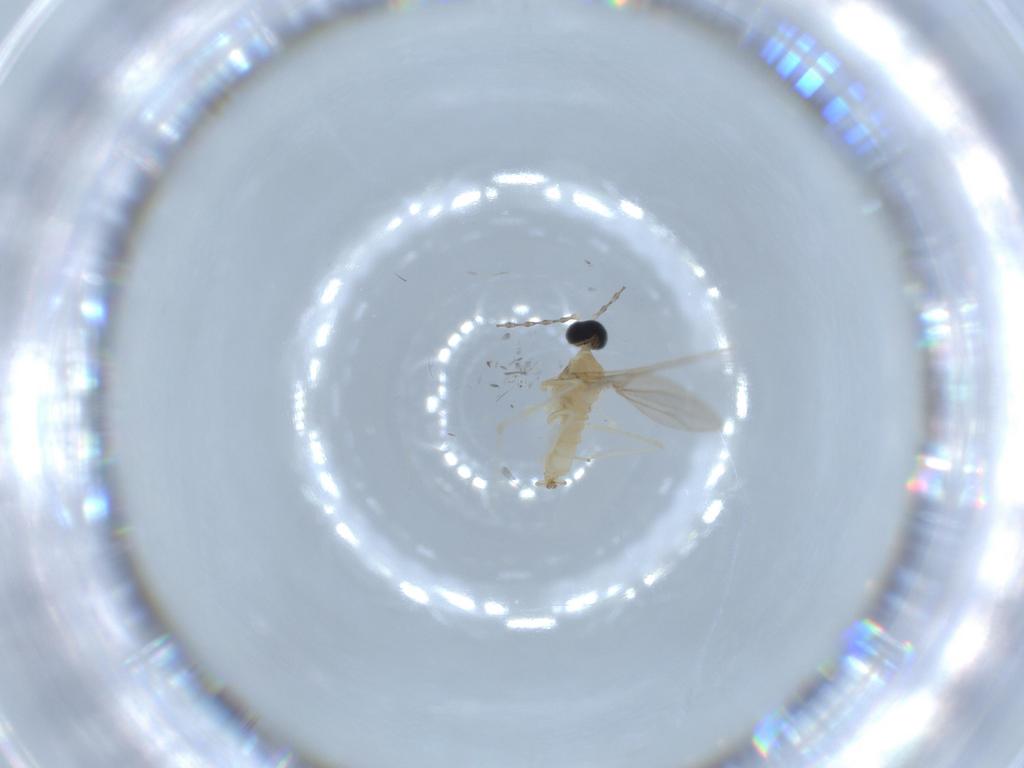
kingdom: Animalia
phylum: Arthropoda
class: Insecta
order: Diptera
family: Cecidomyiidae
